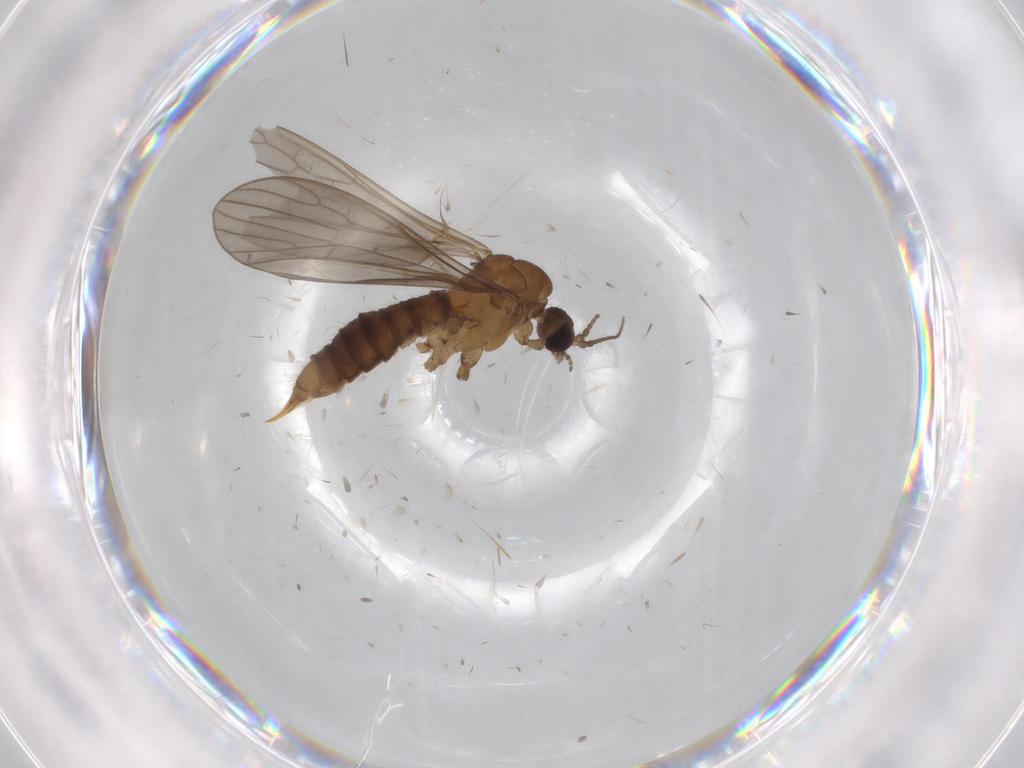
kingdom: Animalia
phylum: Arthropoda
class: Insecta
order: Diptera
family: Limoniidae
